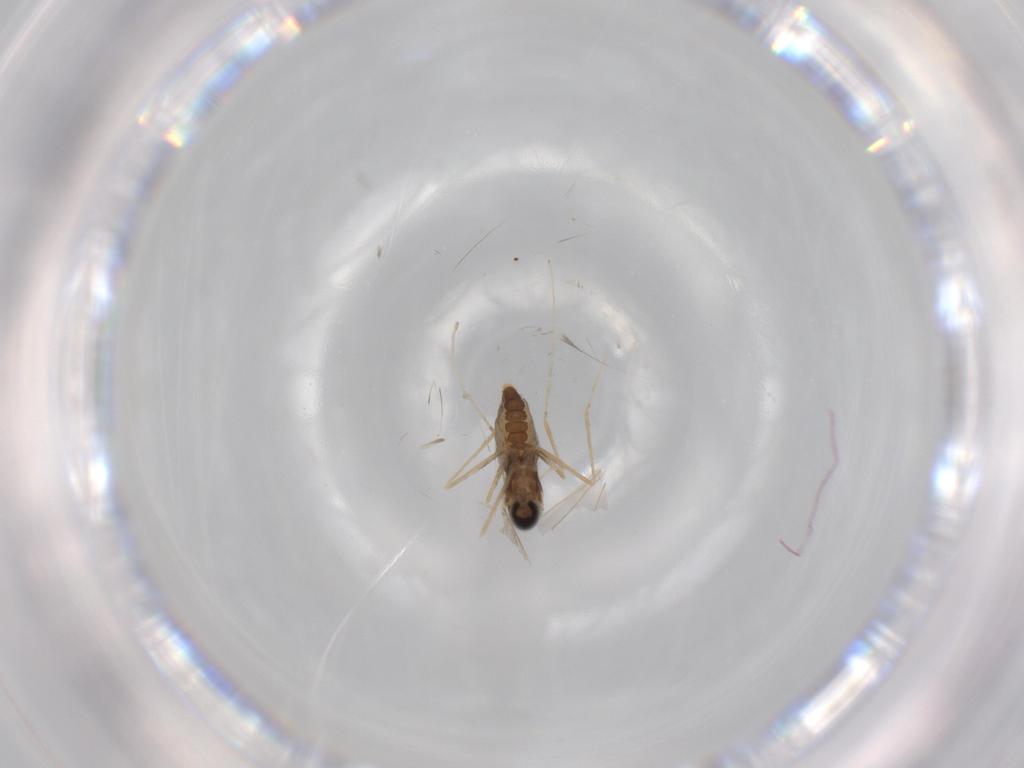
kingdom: Animalia
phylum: Arthropoda
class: Insecta
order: Diptera
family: Cecidomyiidae
